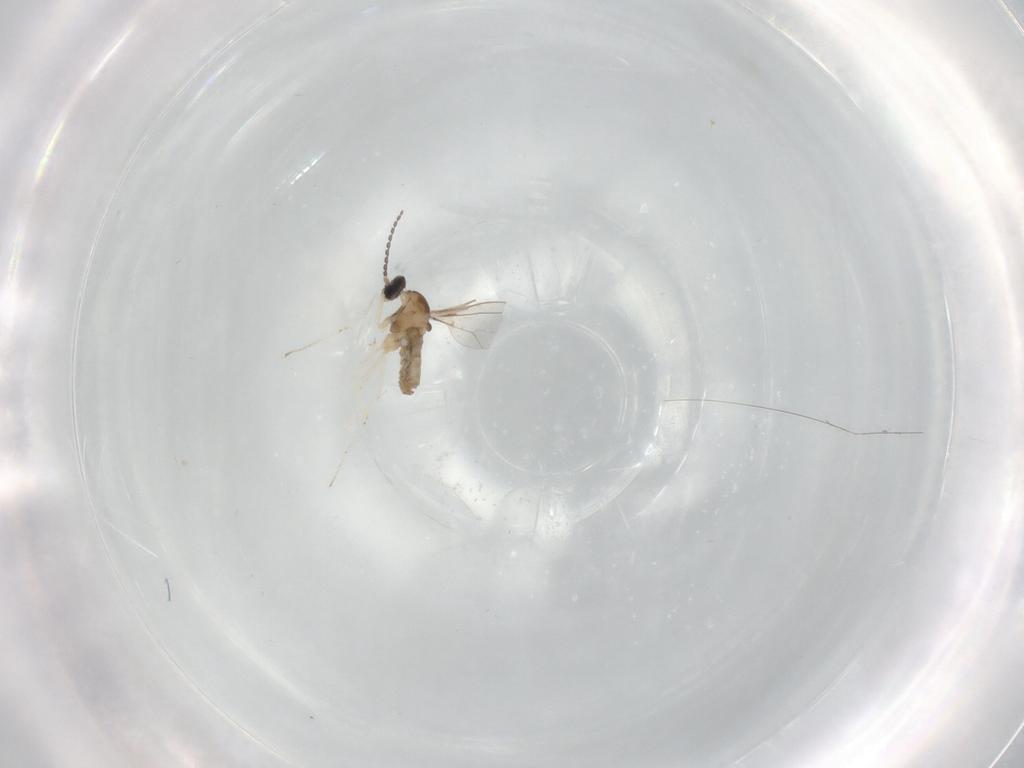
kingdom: Animalia
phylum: Arthropoda
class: Insecta
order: Diptera
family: Cecidomyiidae
